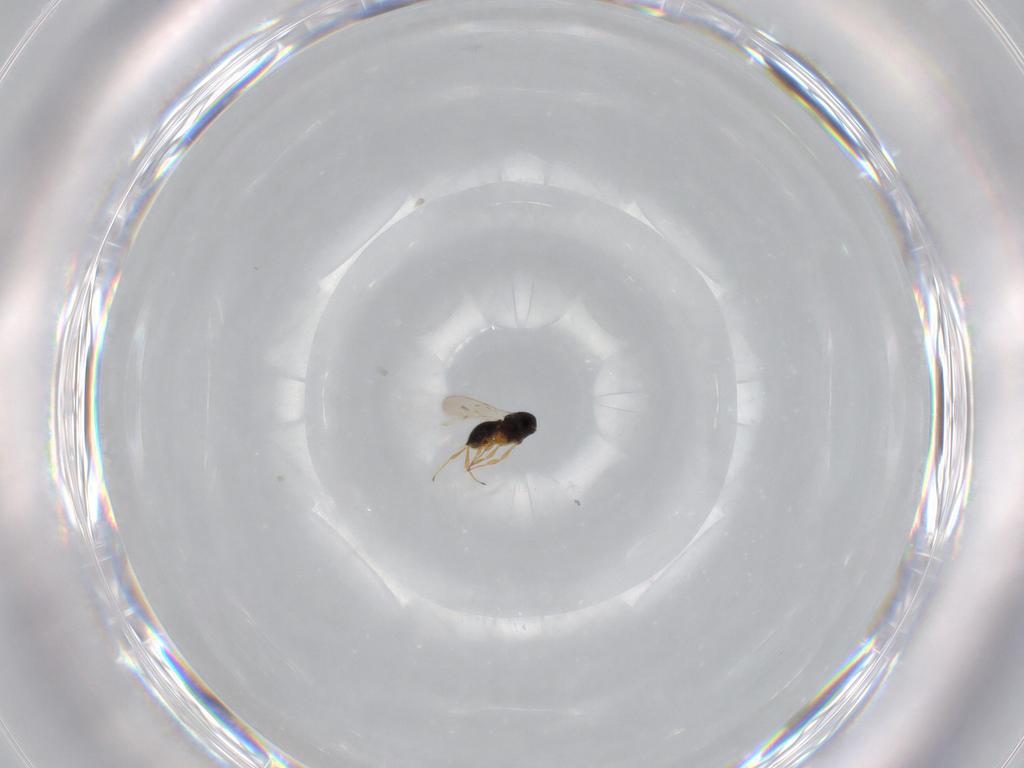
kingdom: Animalia
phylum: Arthropoda
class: Insecta
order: Hymenoptera
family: Scelionidae
